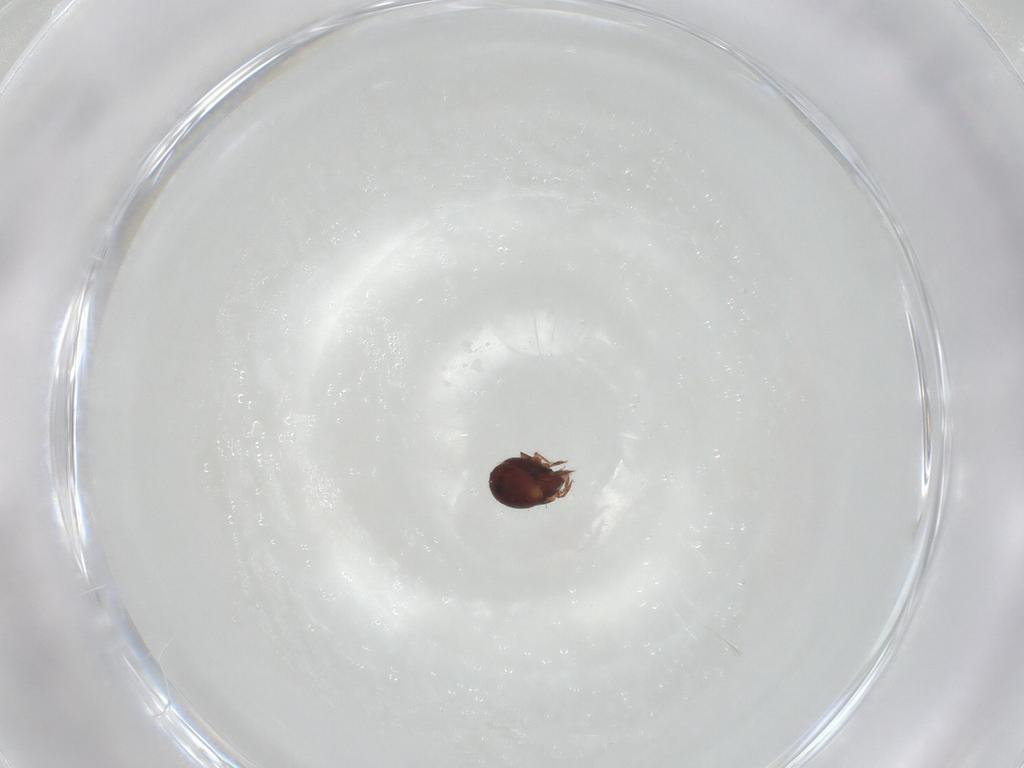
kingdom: Animalia
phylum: Arthropoda
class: Arachnida
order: Sarcoptiformes
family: Humerobatidae
